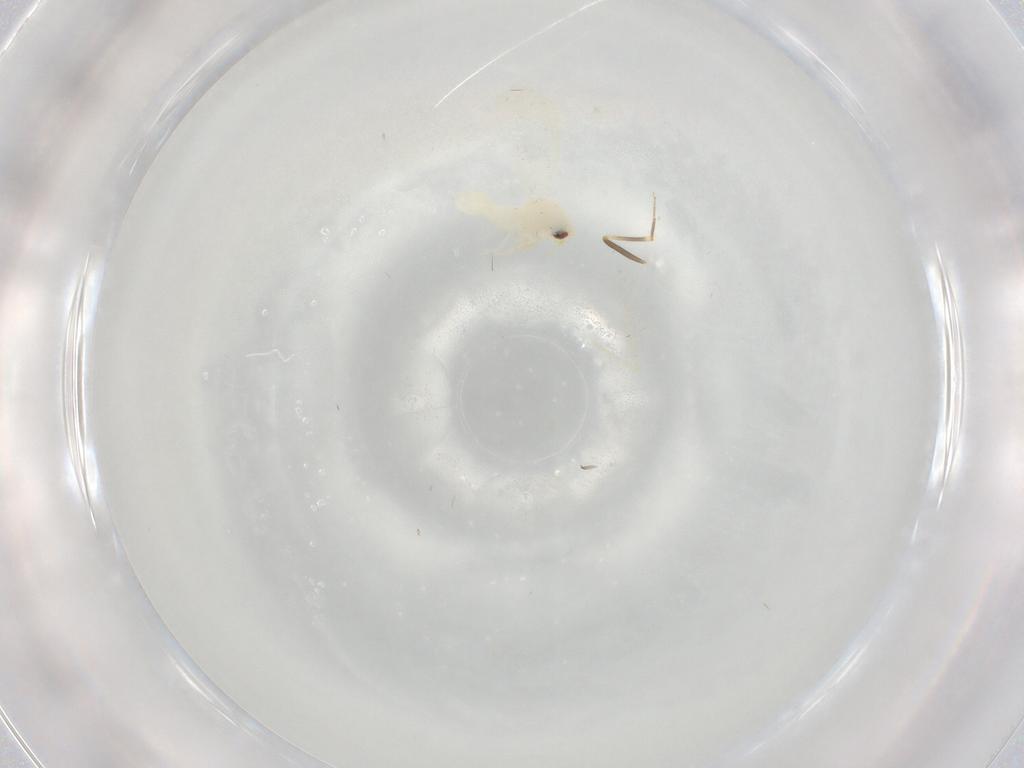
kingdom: Animalia
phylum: Arthropoda
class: Insecta
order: Hemiptera
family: Aleyrodidae
